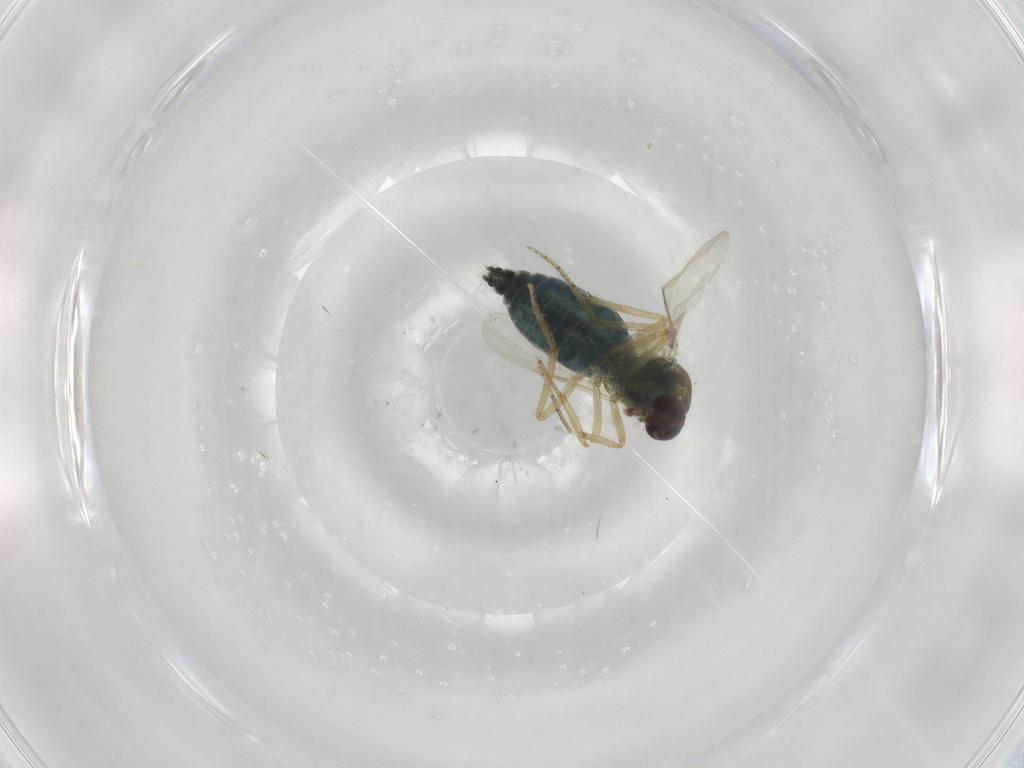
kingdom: Animalia
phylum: Arthropoda
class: Insecta
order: Diptera
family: Ceratopogonidae
